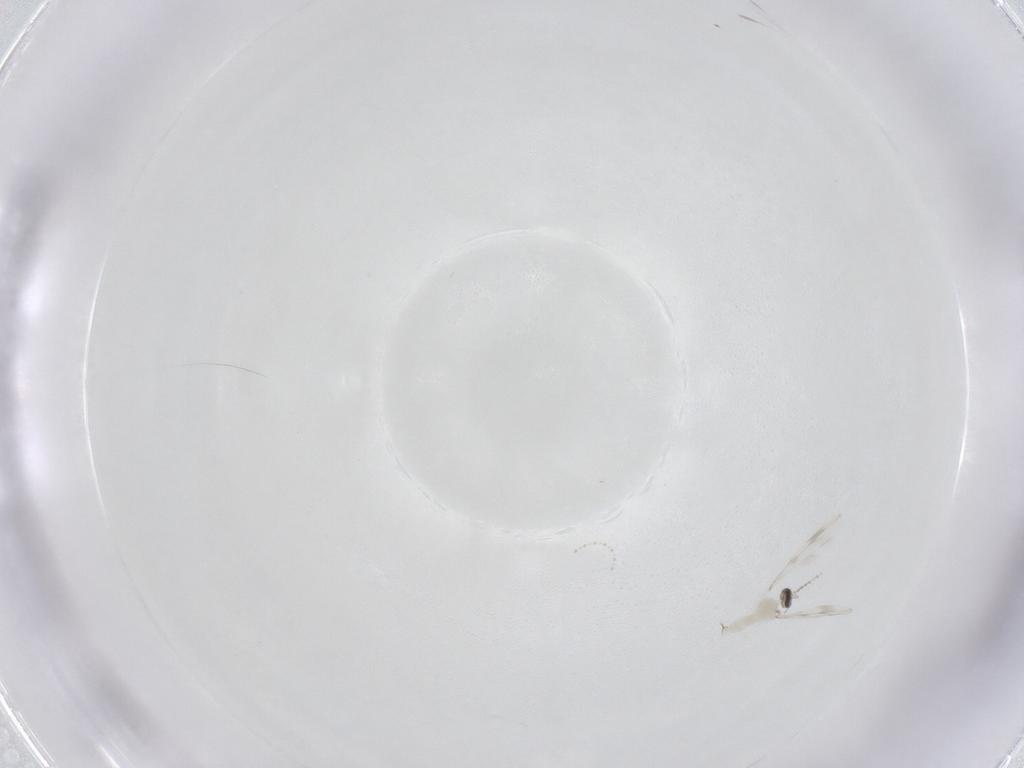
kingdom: Animalia
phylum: Arthropoda
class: Insecta
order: Diptera
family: Cecidomyiidae
